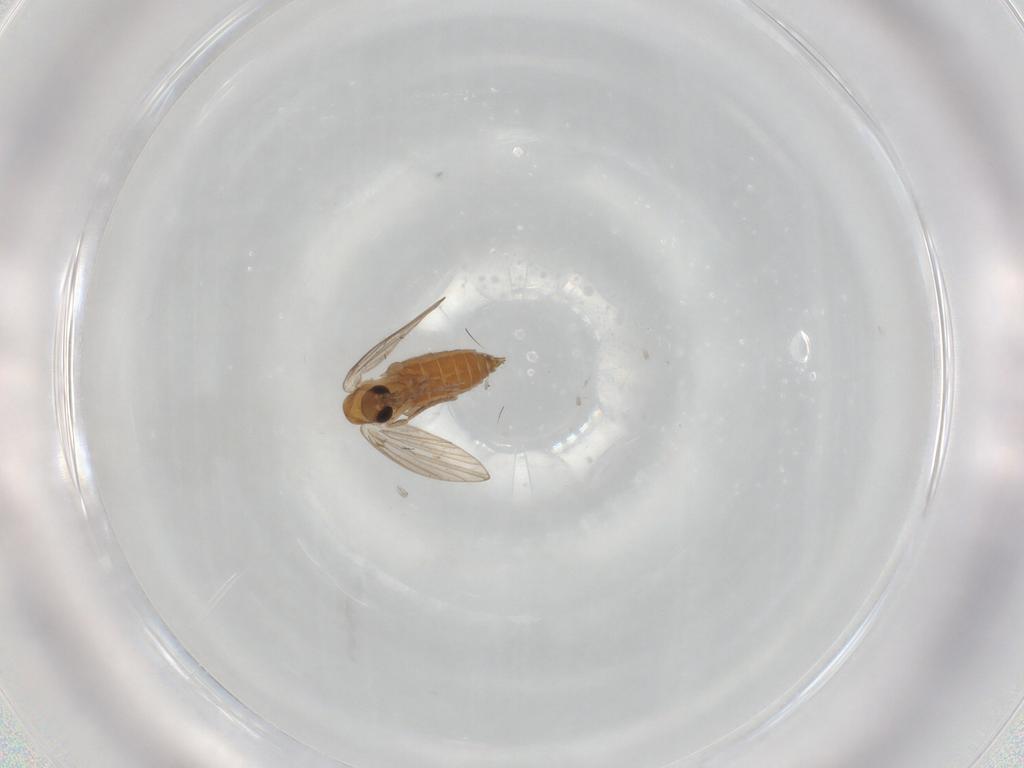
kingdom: Animalia
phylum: Arthropoda
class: Insecta
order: Diptera
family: Psychodidae
